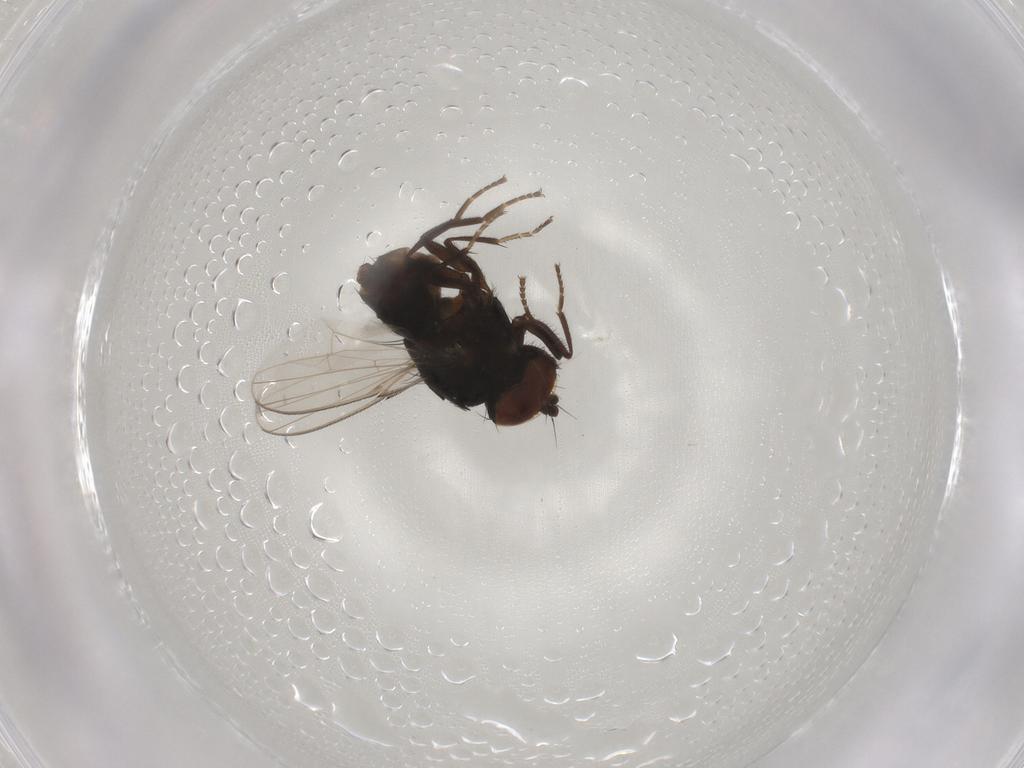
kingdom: Animalia
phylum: Arthropoda
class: Insecta
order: Diptera
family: Milichiidae
